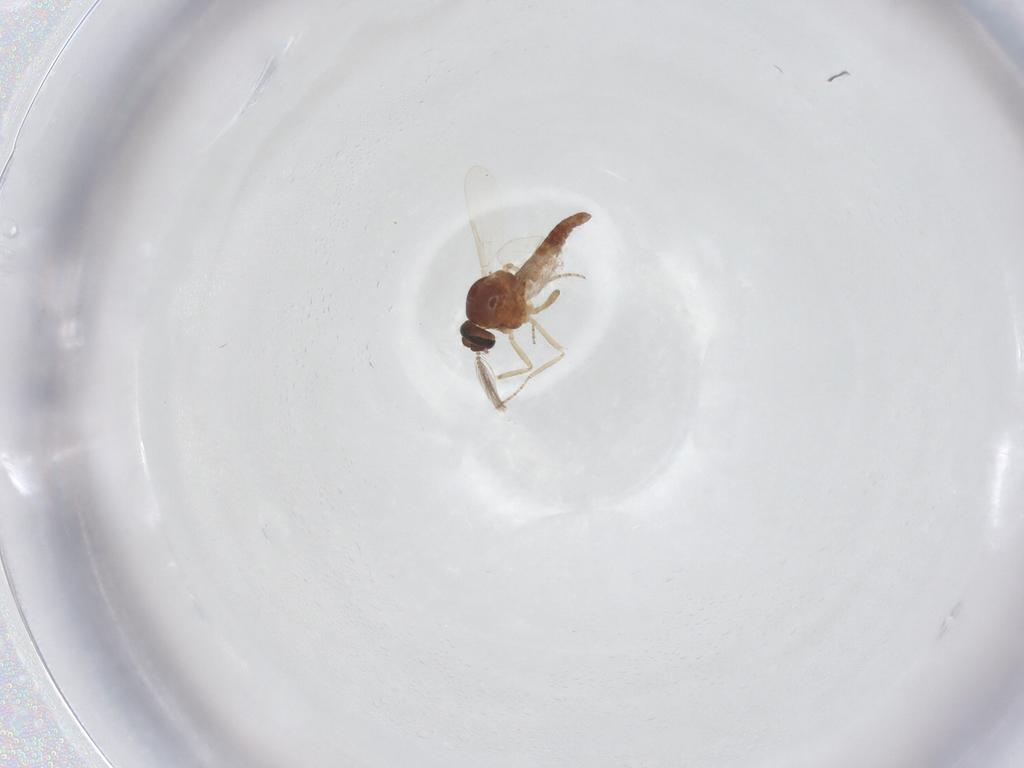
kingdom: Animalia
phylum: Arthropoda
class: Insecta
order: Diptera
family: Ceratopogonidae
